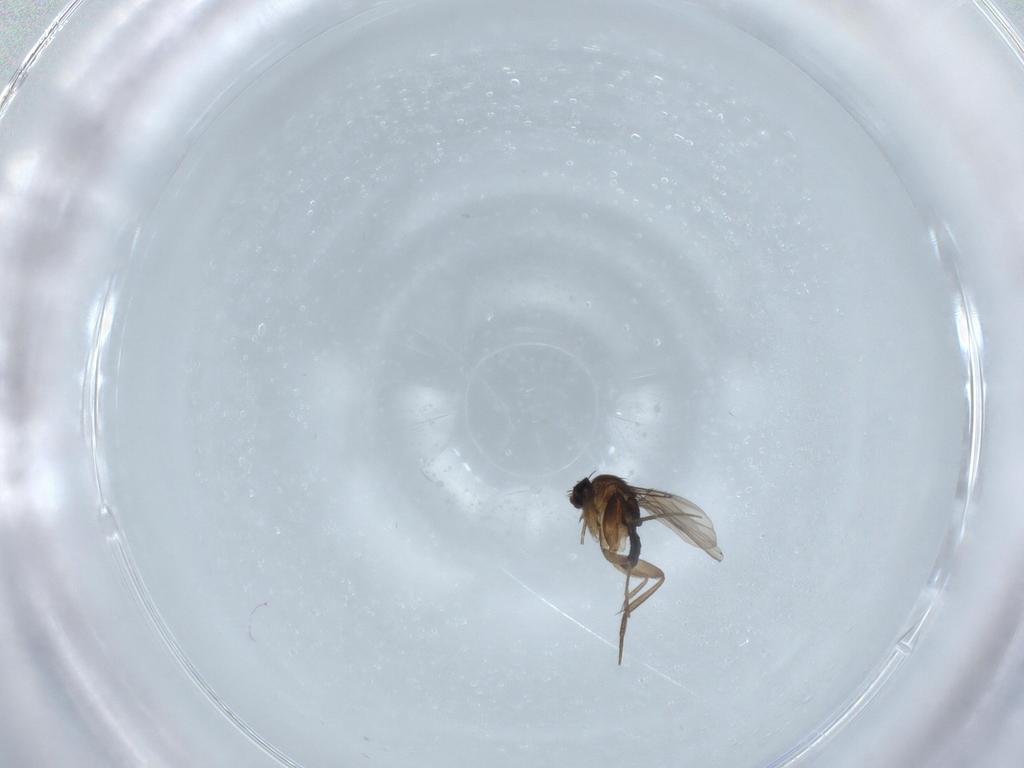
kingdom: Animalia
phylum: Arthropoda
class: Insecta
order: Diptera
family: Phoridae
